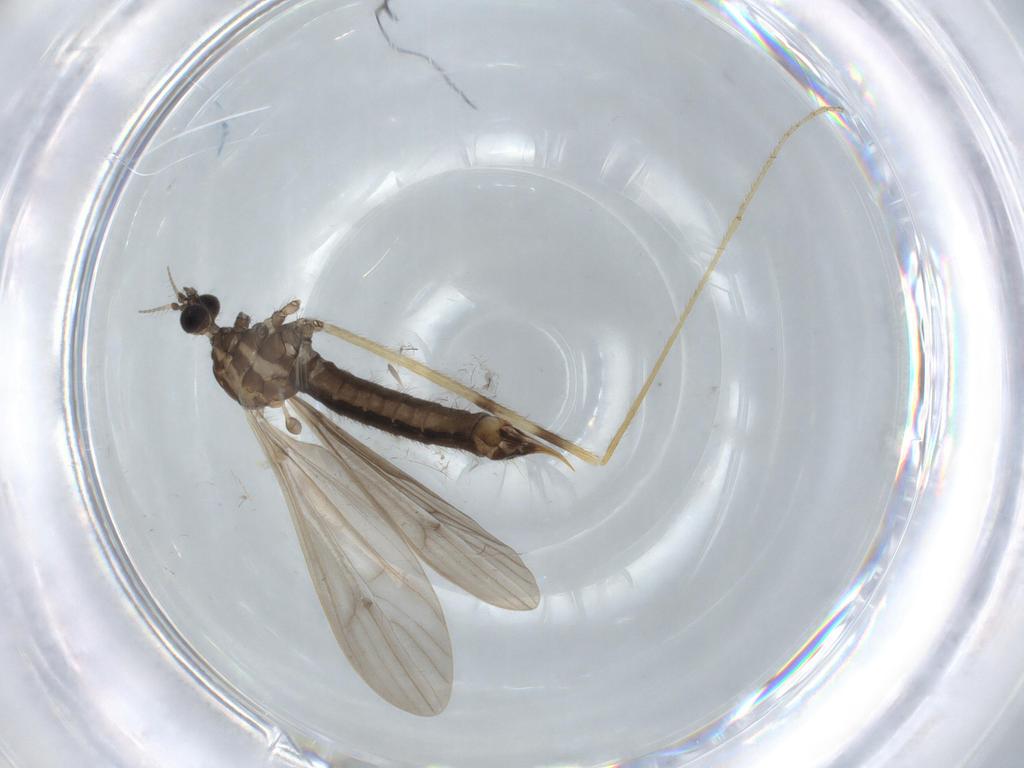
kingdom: Animalia
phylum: Arthropoda
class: Insecta
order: Diptera
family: Limoniidae
